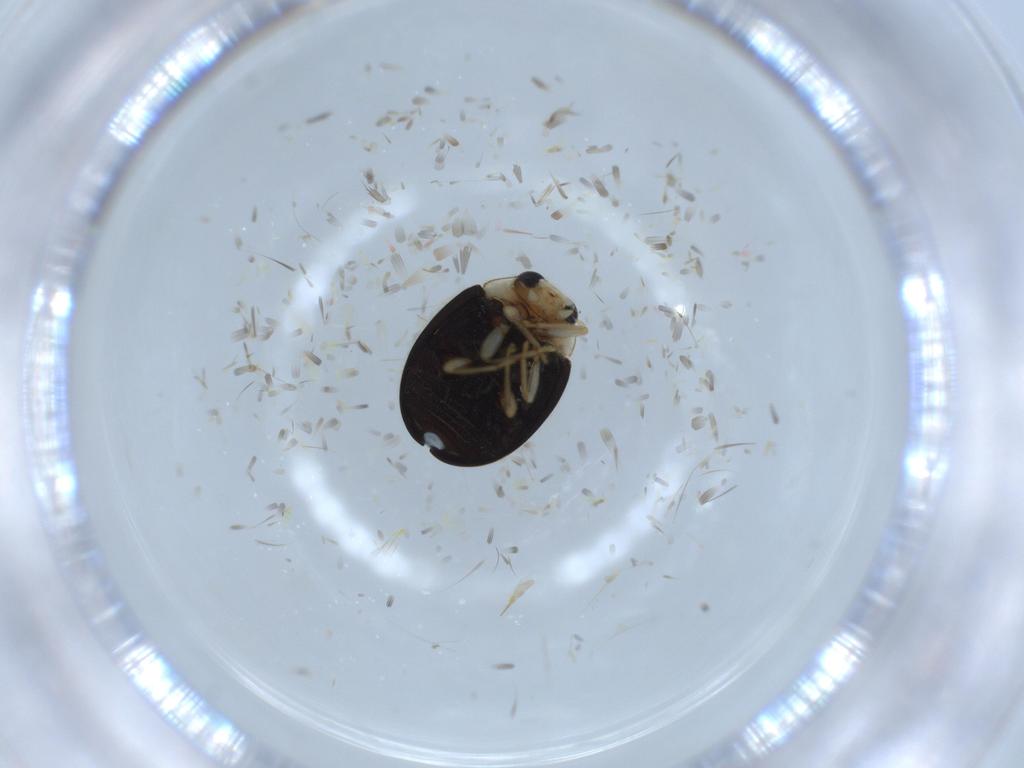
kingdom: Animalia
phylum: Arthropoda
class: Insecta
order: Coleoptera
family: Coccinellidae
